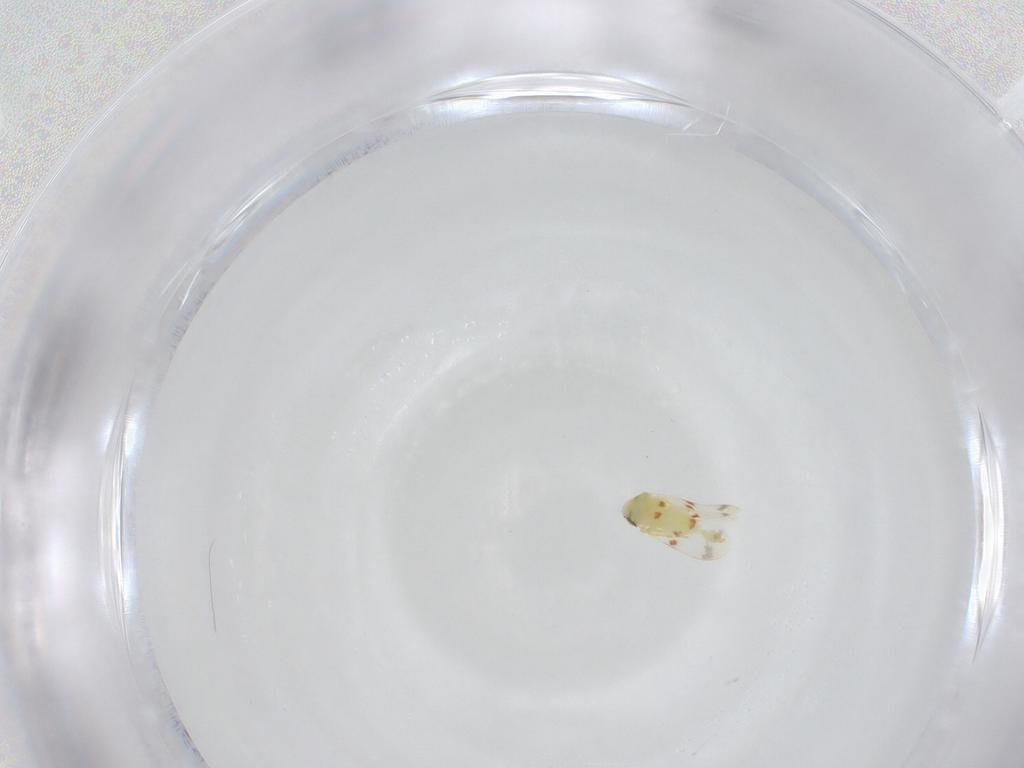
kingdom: Animalia
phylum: Arthropoda
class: Insecta
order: Hemiptera
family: Aleyrodidae
